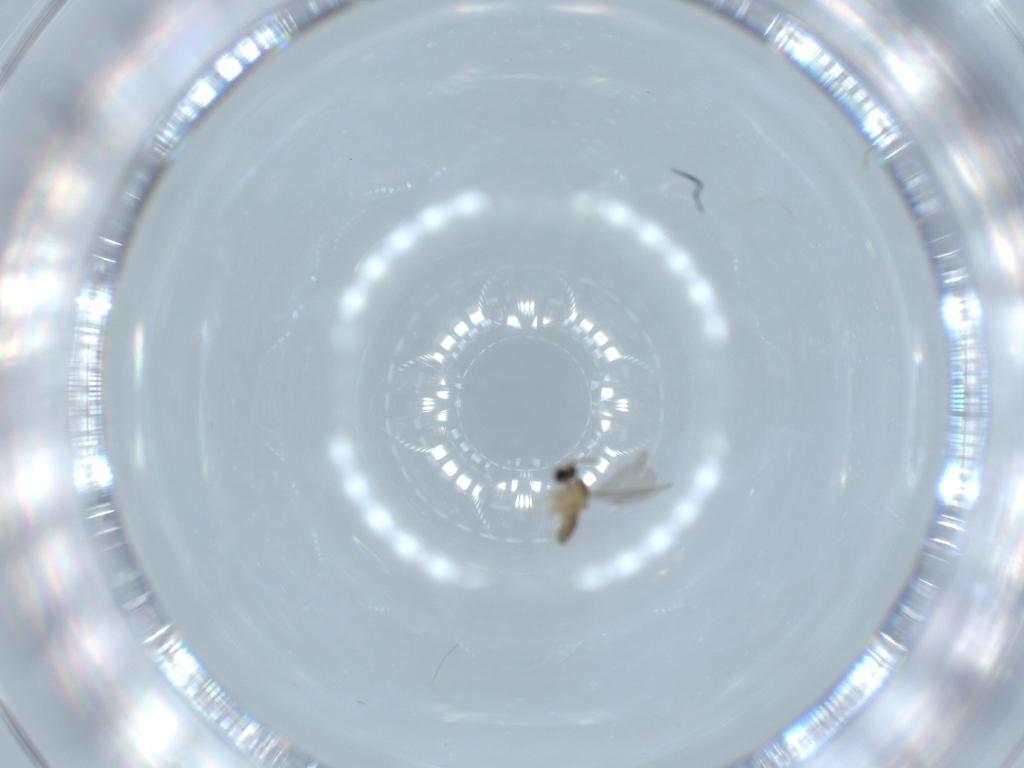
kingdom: Animalia
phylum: Arthropoda
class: Insecta
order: Diptera
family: Cecidomyiidae
